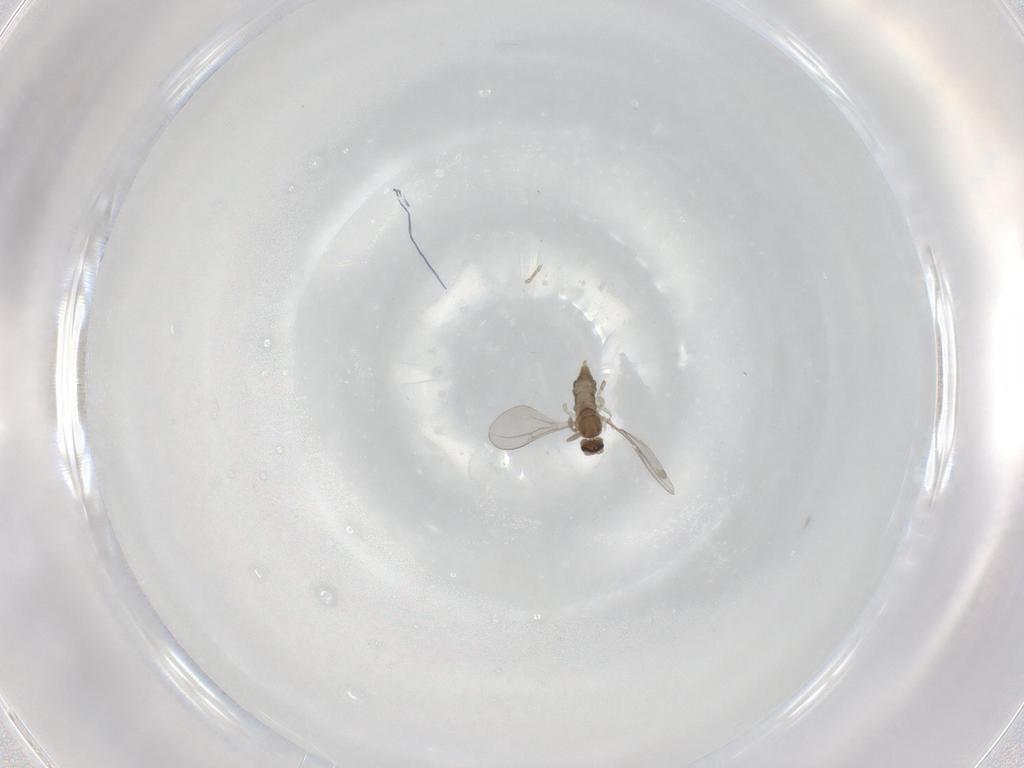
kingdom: Animalia
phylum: Arthropoda
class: Insecta
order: Diptera
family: Cecidomyiidae
